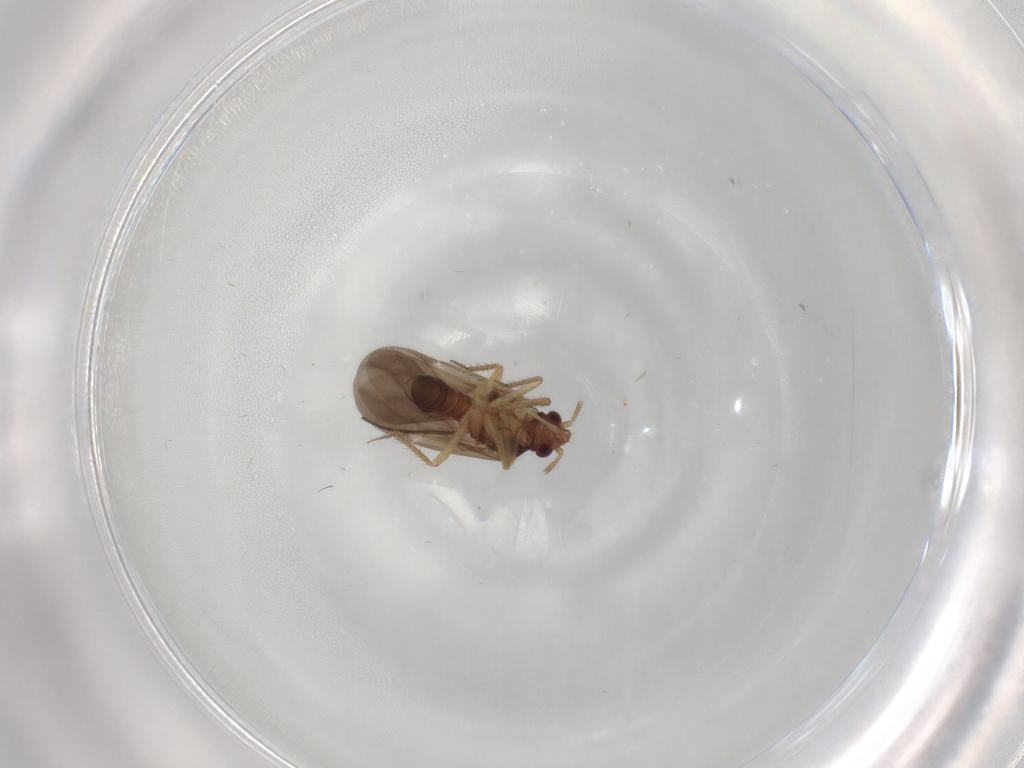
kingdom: Animalia
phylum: Arthropoda
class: Insecta
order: Hemiptera
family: Ceratocombidae
